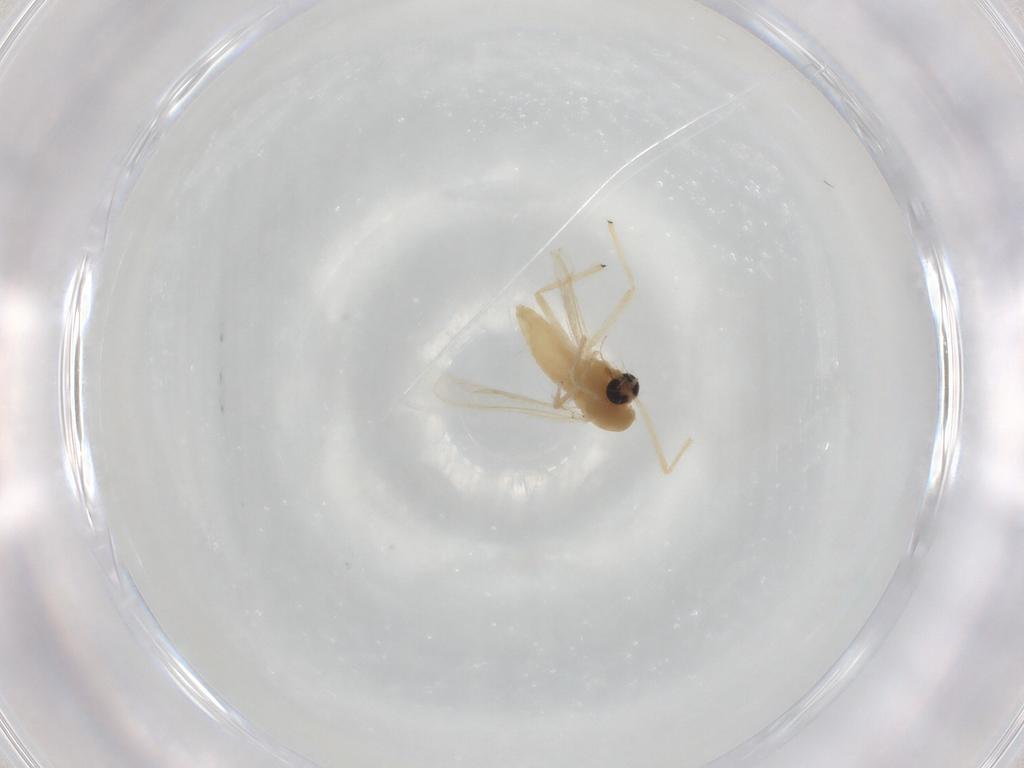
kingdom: Animalia
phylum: Arthropoda
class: Insecta
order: Diptera
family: Chironomidae
